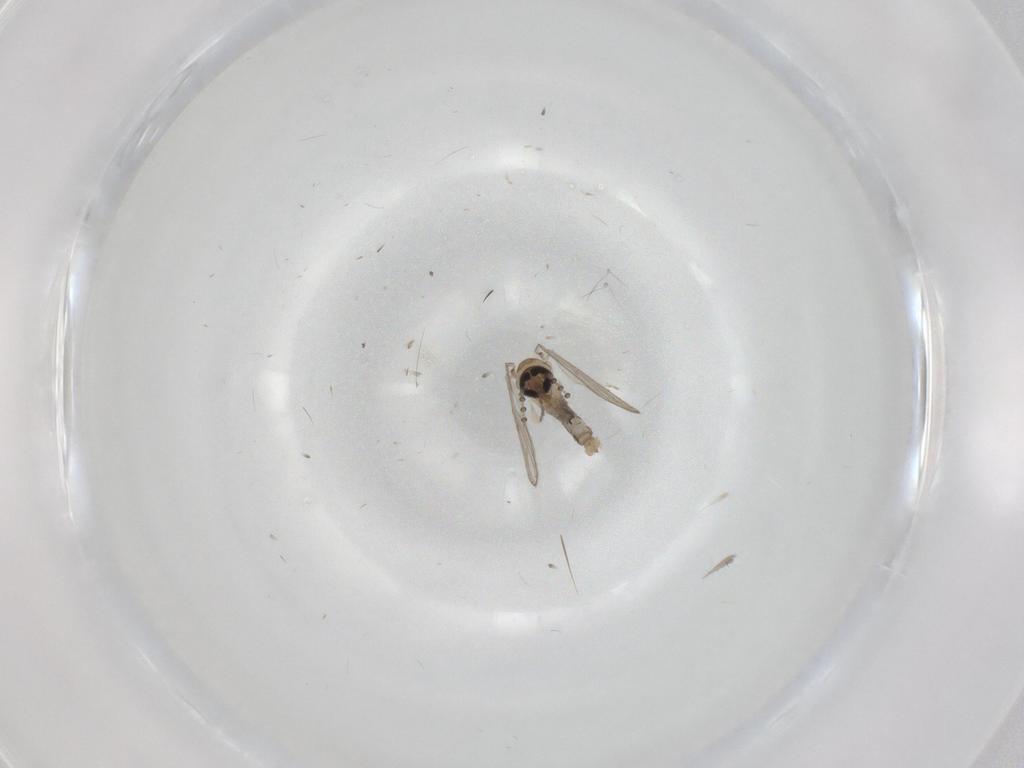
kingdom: Animalia
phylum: Arthropoda
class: Insecta
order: Diptera
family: Psychodidae
